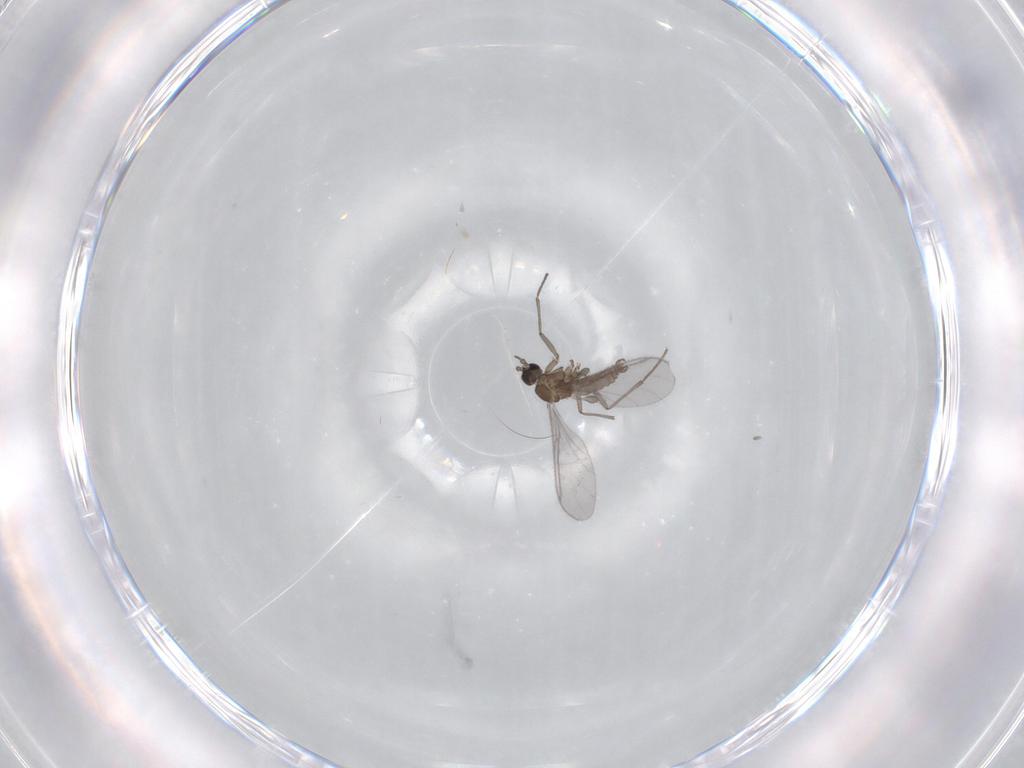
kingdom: Animalia
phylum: Arthropoda
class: Insecta
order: Diptera
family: Sciaridae
